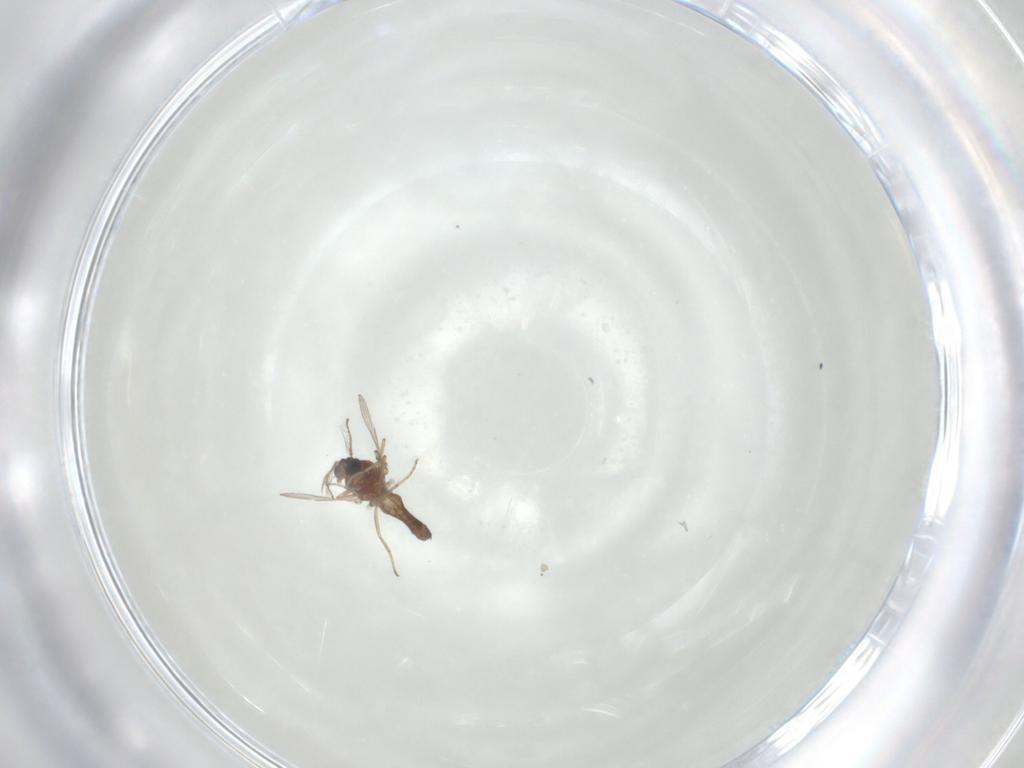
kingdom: Animalia
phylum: Arthropoda
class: Insecta
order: Diptera
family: Ceratopogonidae
